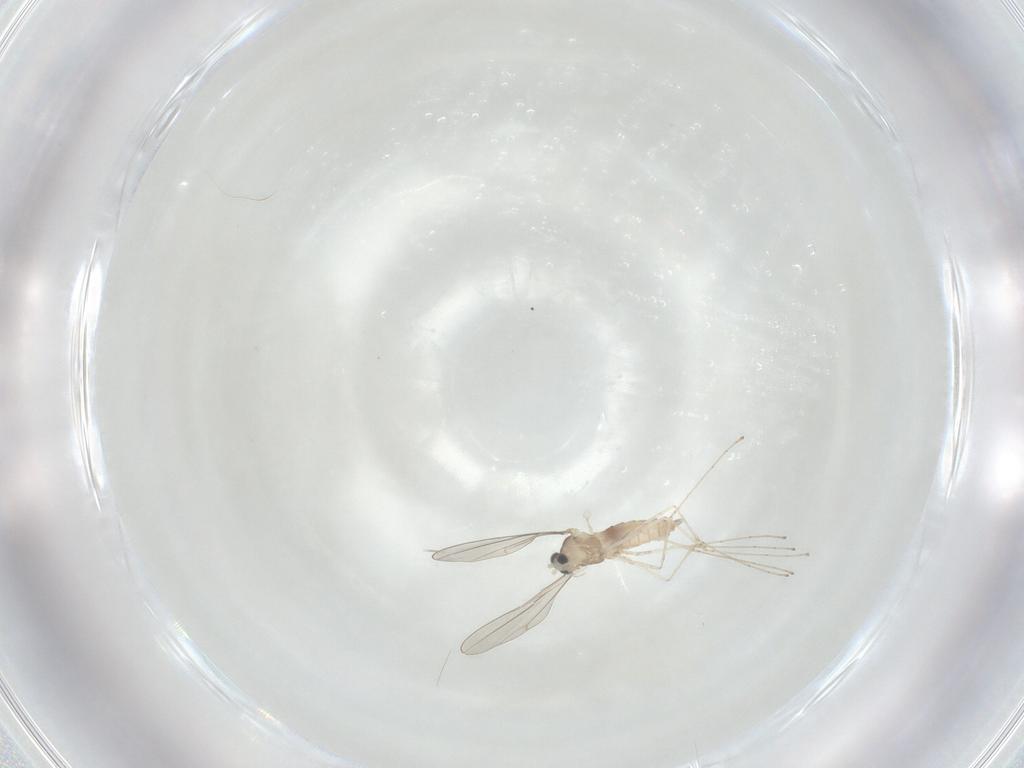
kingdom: Animalia
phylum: Arthropoda
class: Insecta
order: Diptera
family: Cecidomyiidae
